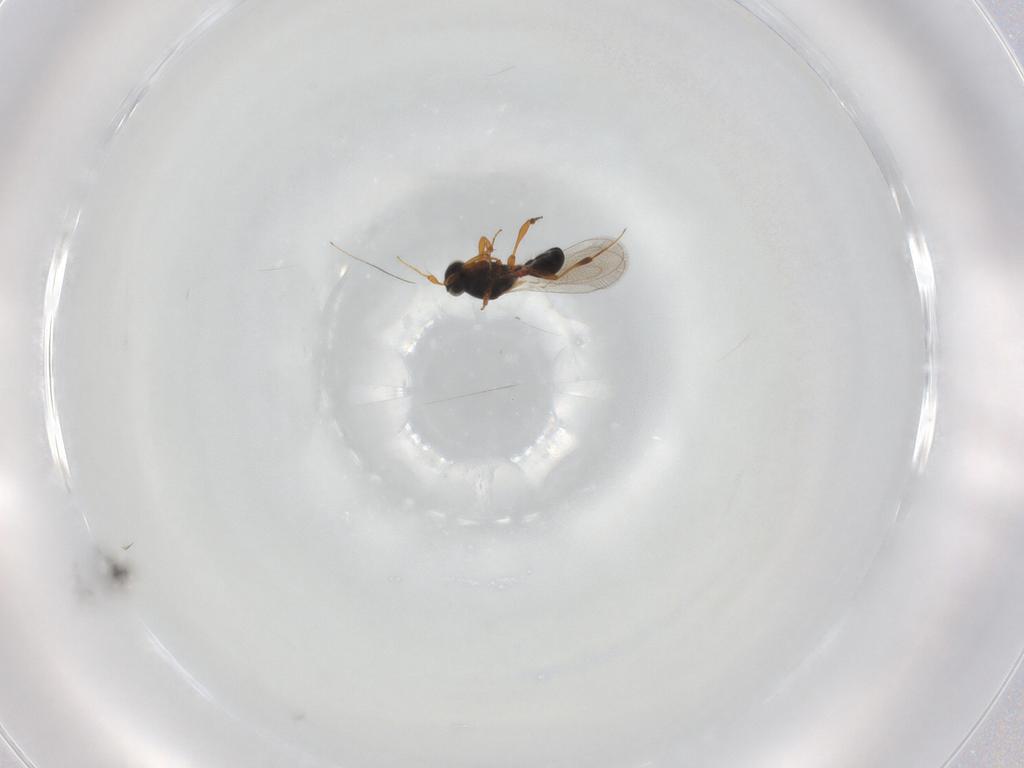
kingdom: Animalia
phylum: Arthropoda
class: Insecta
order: Hymenoptera
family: Platygastridae
